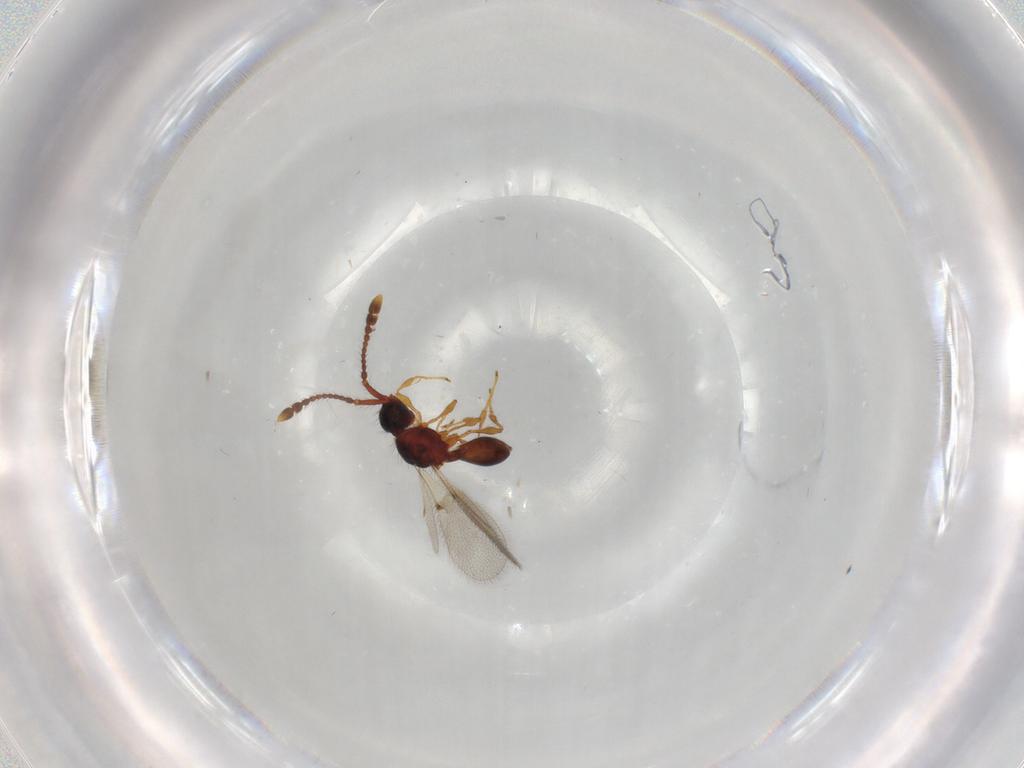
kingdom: Animalia
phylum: Arthropoda
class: Insecta
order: Hymenoptera
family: Diapriidae
